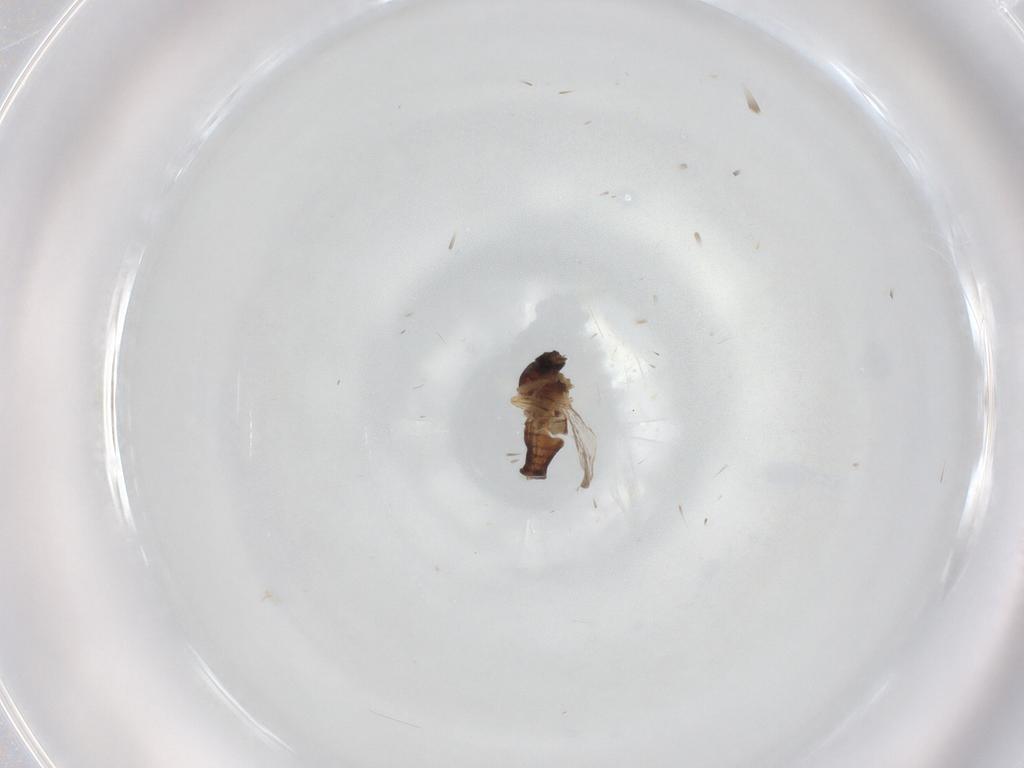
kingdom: Animalia
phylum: Arthropoda
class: Insecta
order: Diptera
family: Ceratopogonidae
